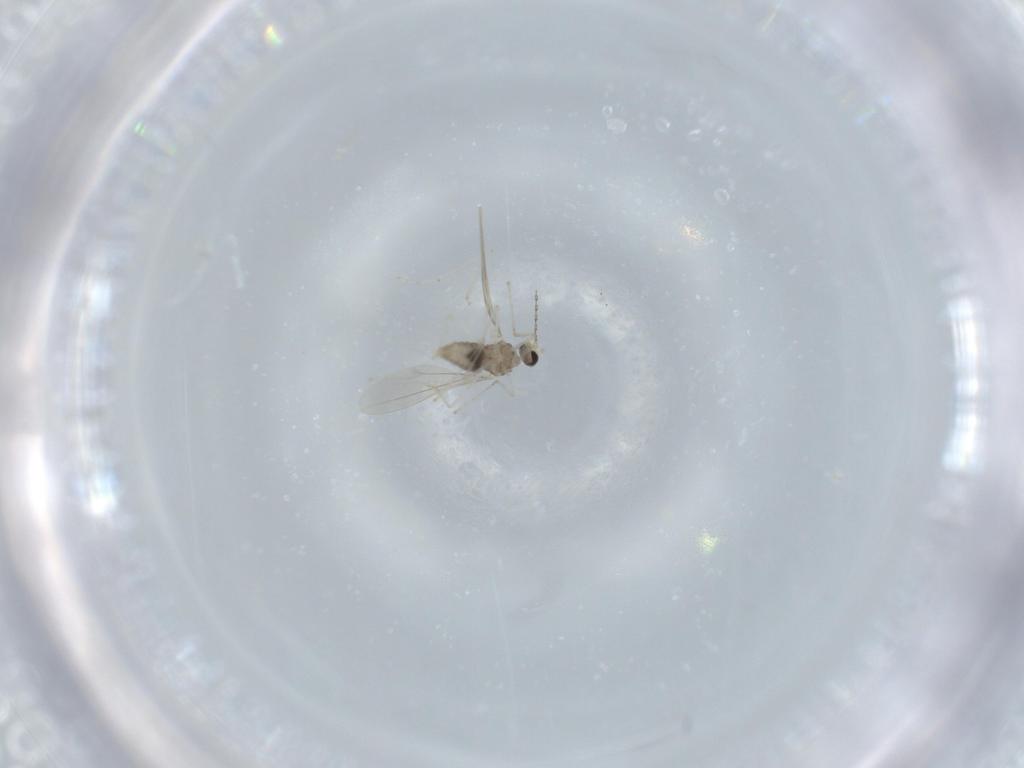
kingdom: Animalia
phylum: Arthropoda
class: Insecta
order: Diptera
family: Cecidomyiidae
